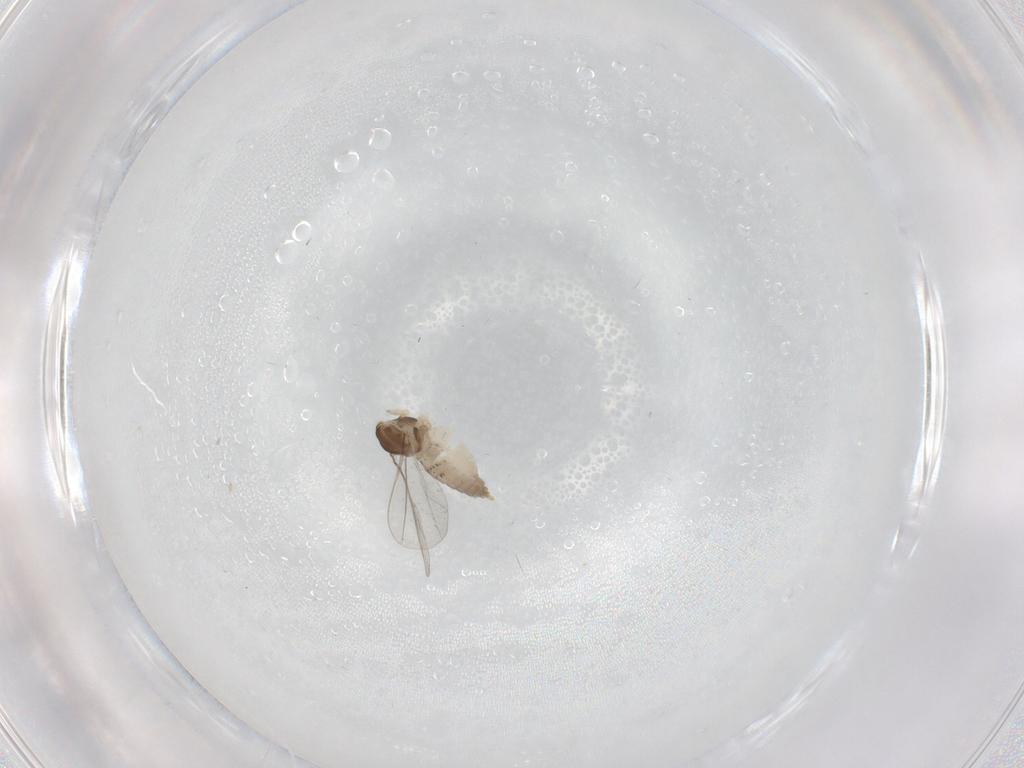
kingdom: Animalia
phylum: Arthropoda
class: Insecta
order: Diptera
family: Cecidomyiidae
